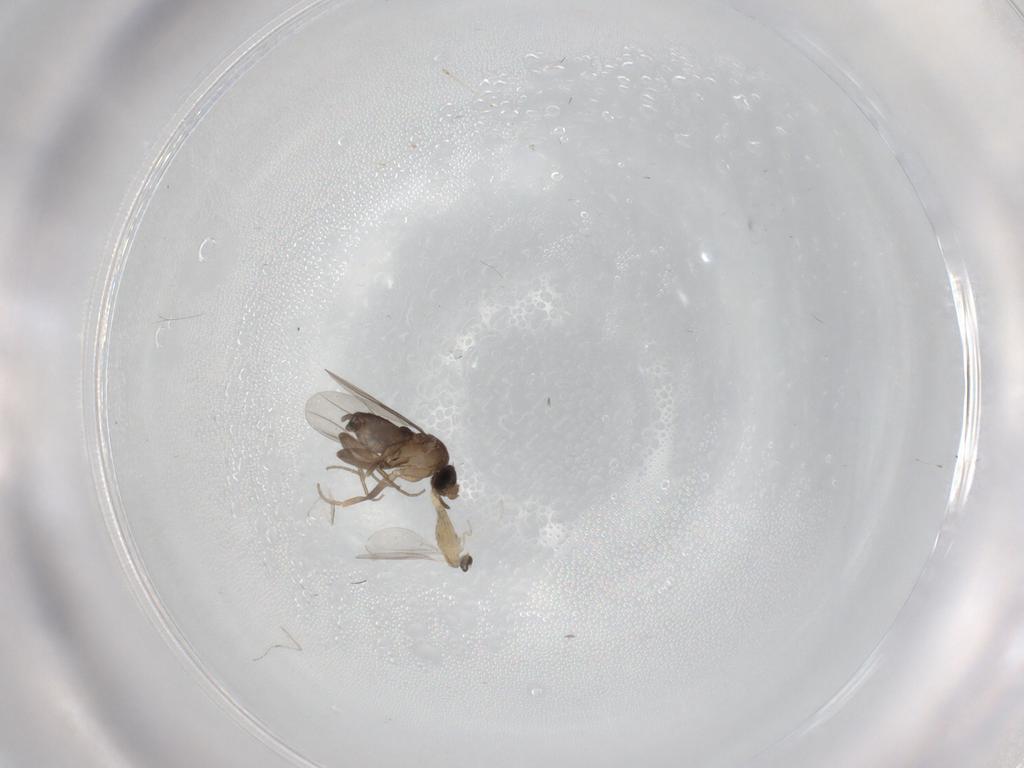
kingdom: Animalia
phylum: Arthropoda
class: Insecta
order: Diptera
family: Cecidomyiidae
